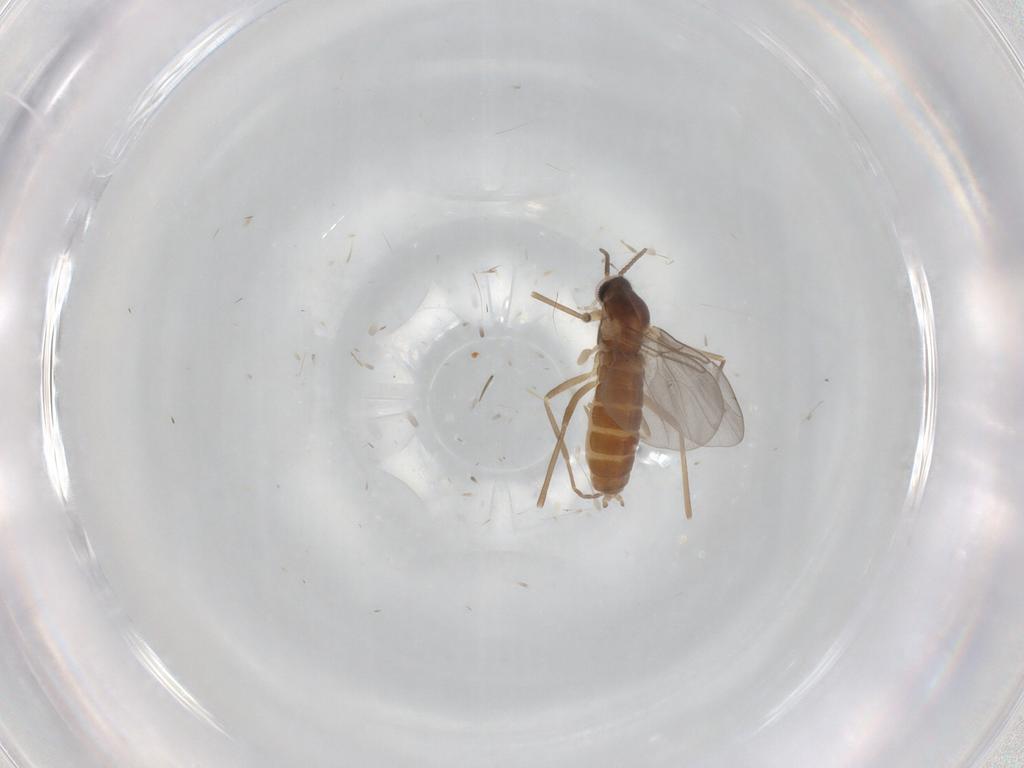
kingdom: Animalia
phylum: Arthropoda
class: Insecta
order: Diptera
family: Cecidomyiidae
